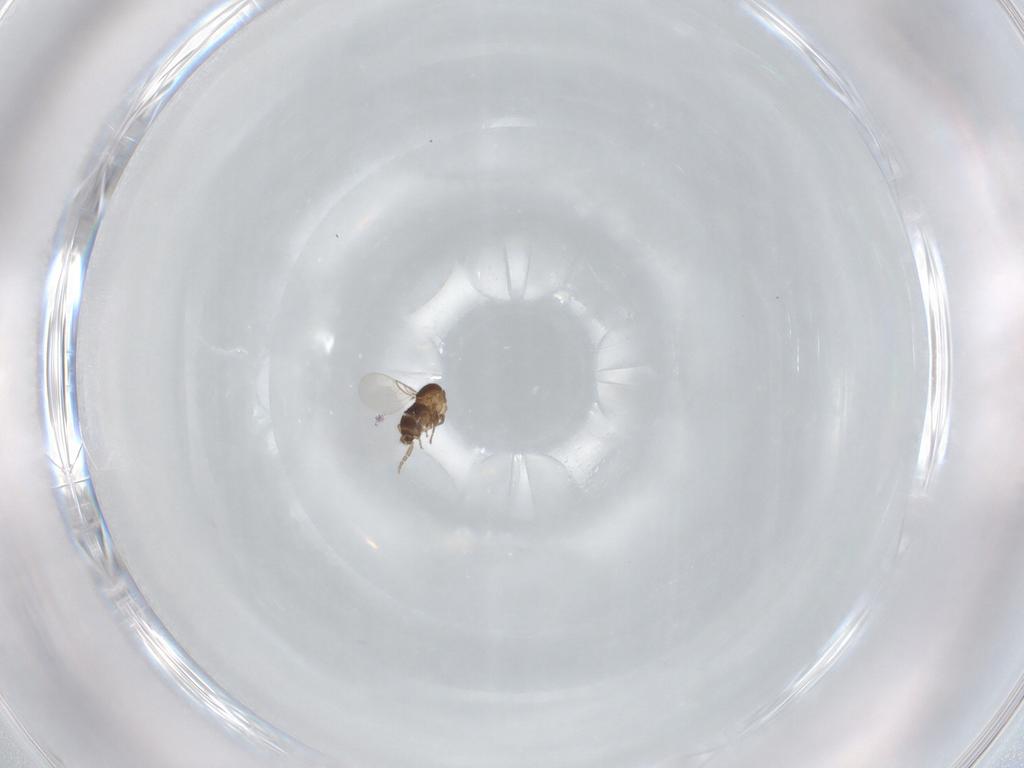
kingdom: Animalia
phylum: Arthropoda
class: Insecta
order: Diptera
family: Phoridae
